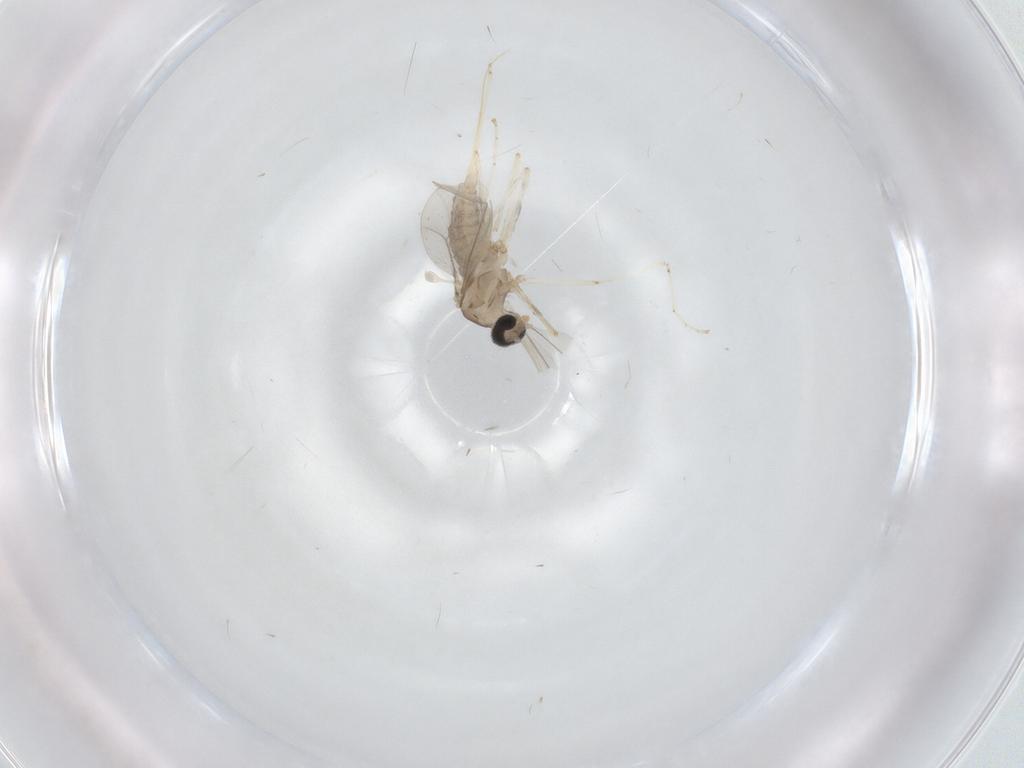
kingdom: Animalia
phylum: Arthropoda
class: Insecta
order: Diptera
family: Cecidomyiidae
